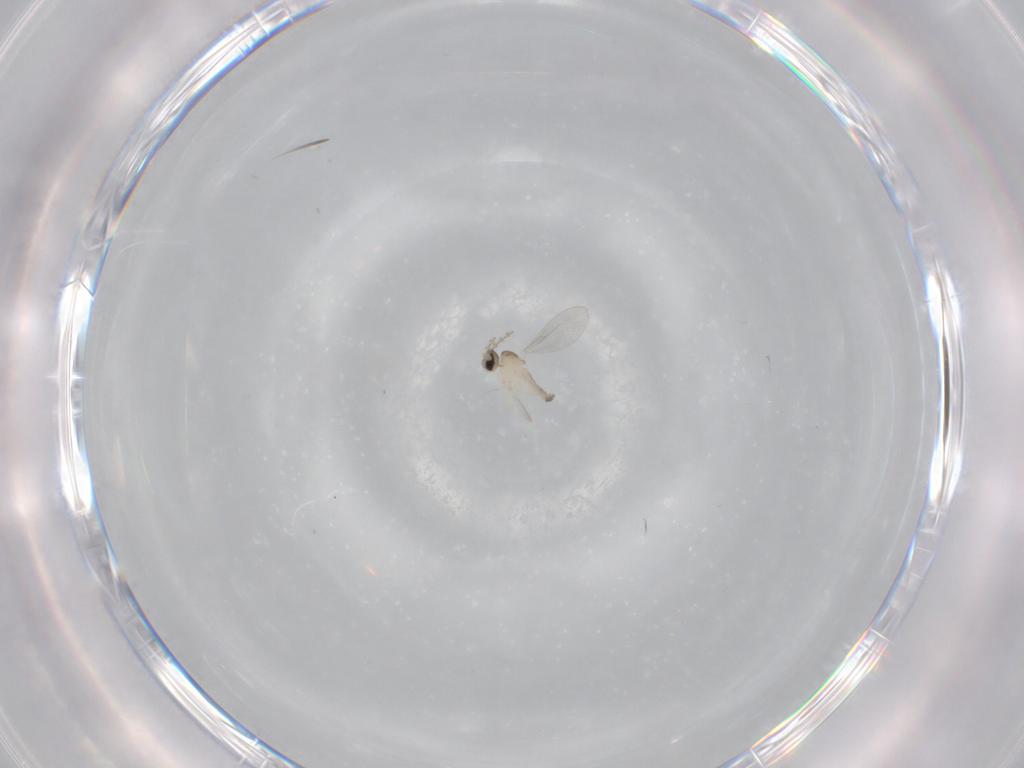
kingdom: Animalia
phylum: Arthropoda
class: Insecta
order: Diptera
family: Cecidomyiidae
